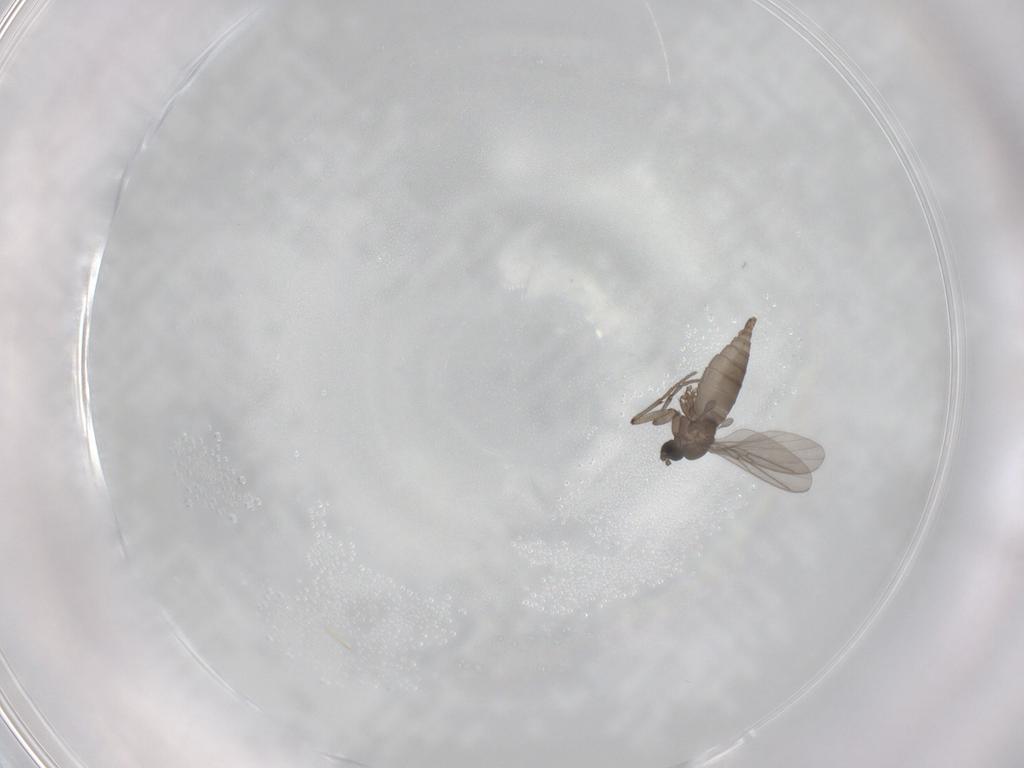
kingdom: Animalia
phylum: Arthropoda
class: Insecta
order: Diptera
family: Sciaridae
